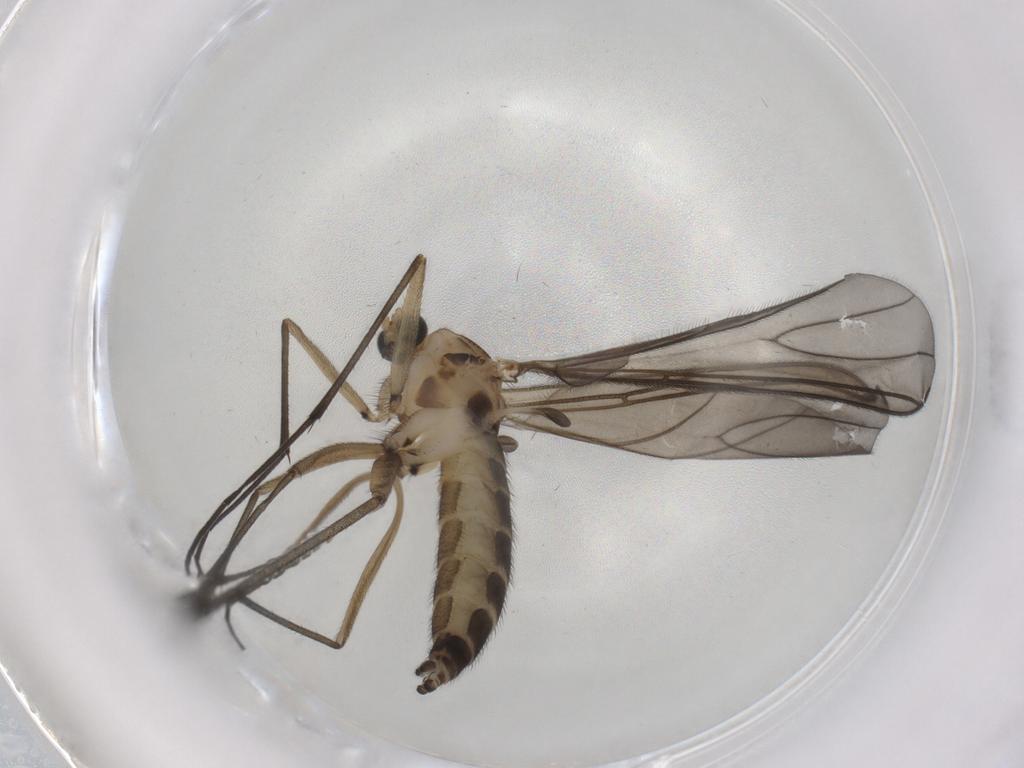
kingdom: Animalia
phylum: Arthropoda
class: Insecta
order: Diptera
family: Sciaridae
